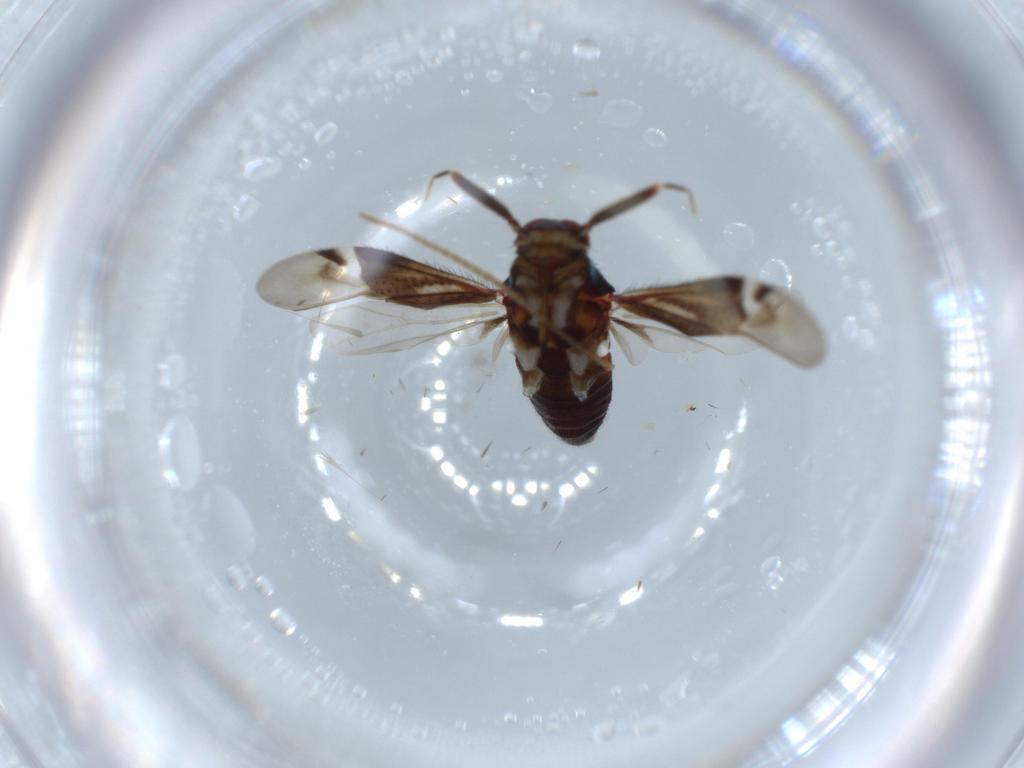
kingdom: Animalia
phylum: Arthropoda
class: Insecta
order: Hemiptera
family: Miridae
